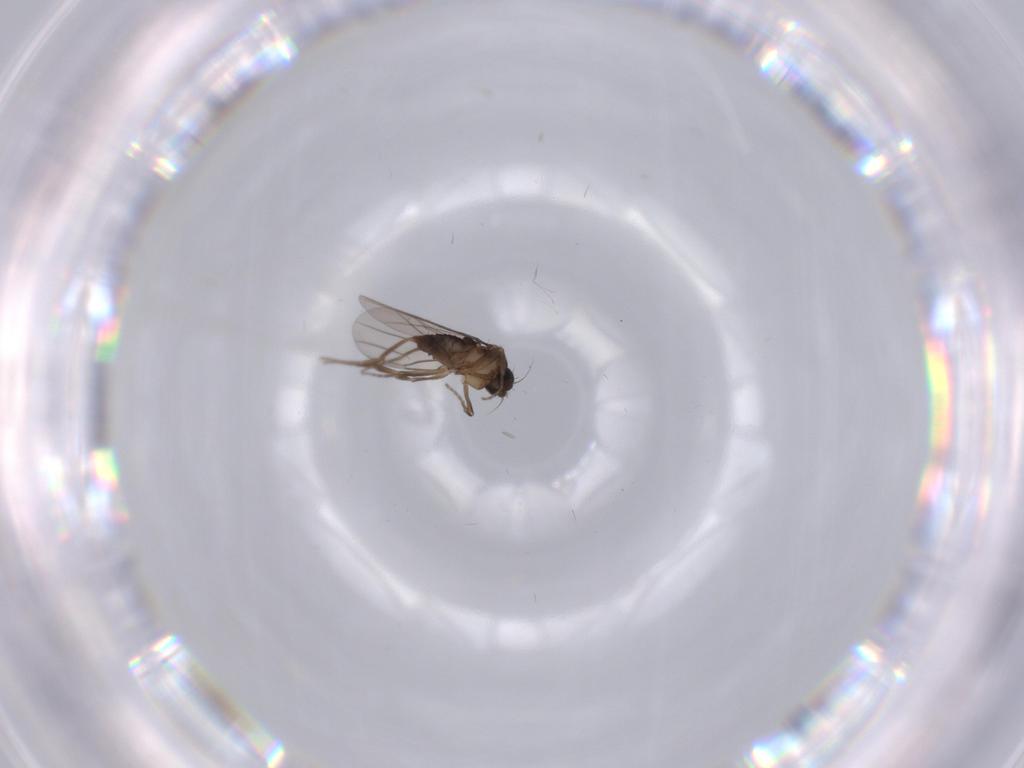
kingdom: Animalia
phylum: Arthropoda
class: Insecta
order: Diptera
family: Phoridae
